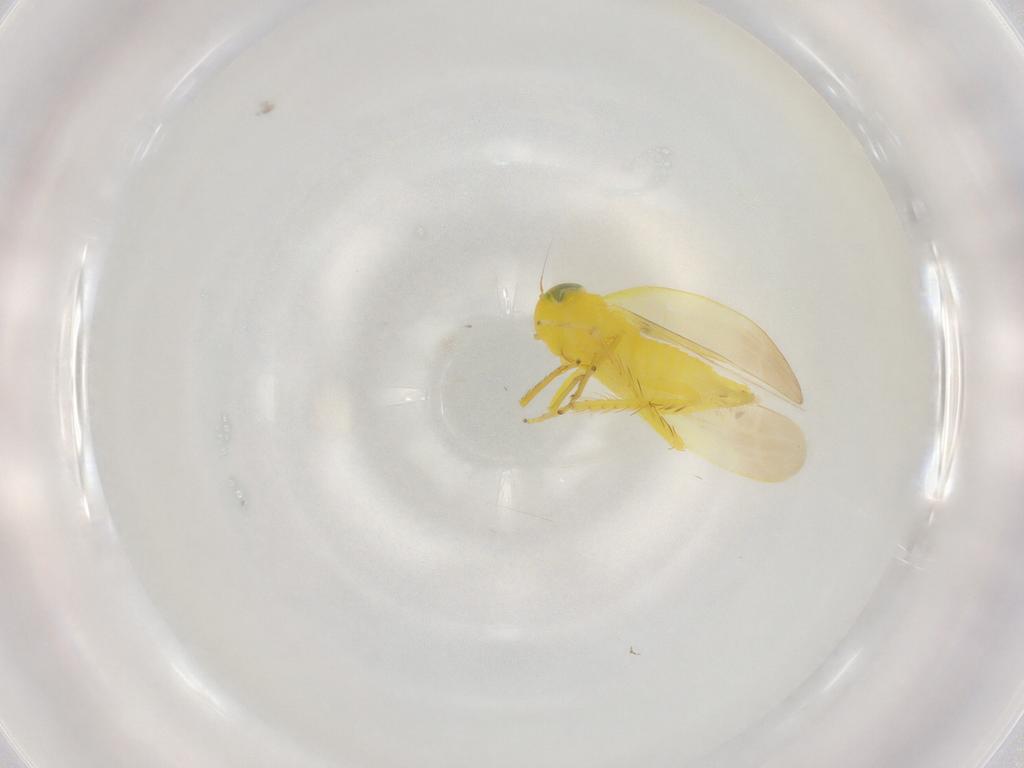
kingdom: Animalia
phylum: Arthropoda
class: Insecta
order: Hemiptera
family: Cicadellidae
